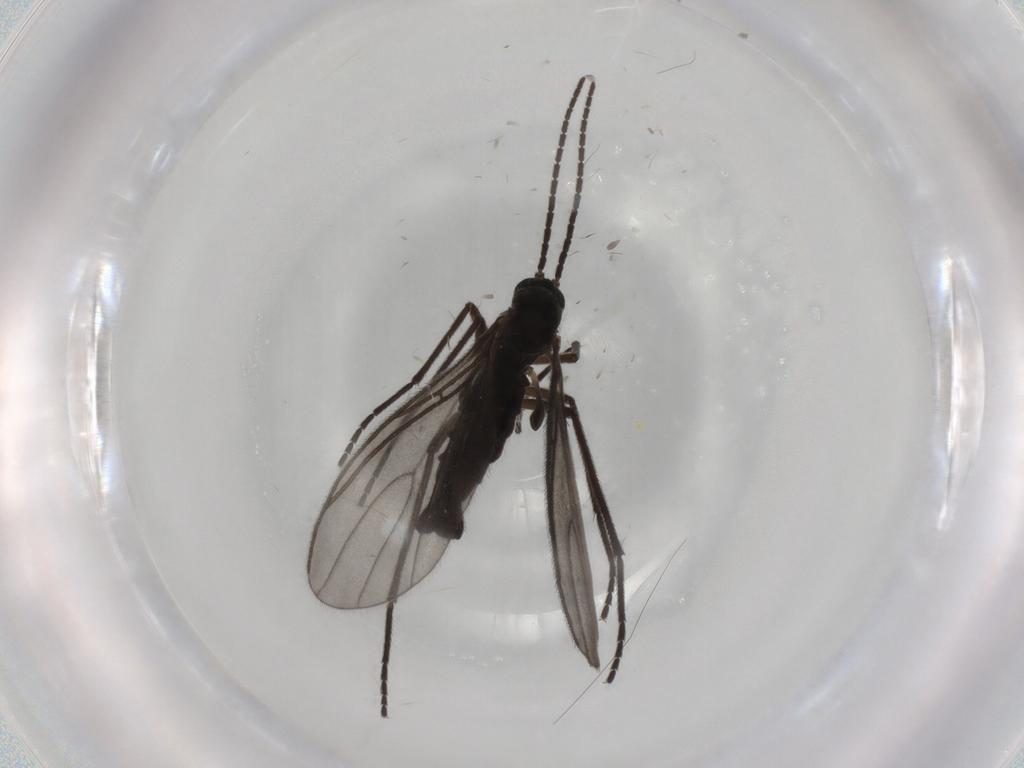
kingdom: Animalia
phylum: Arthropoda
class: Insecta
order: Diptera
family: Sciaridae
